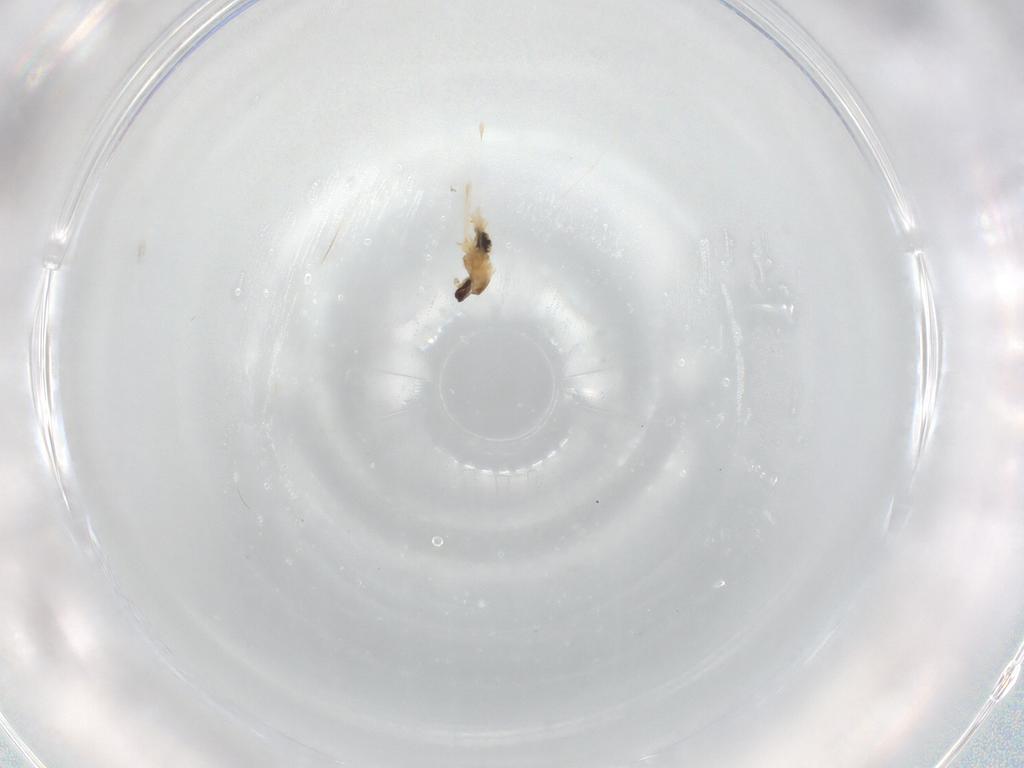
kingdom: Animalia
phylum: Arthropoda
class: Insecta
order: Diptera
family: Cecidomyiidae
